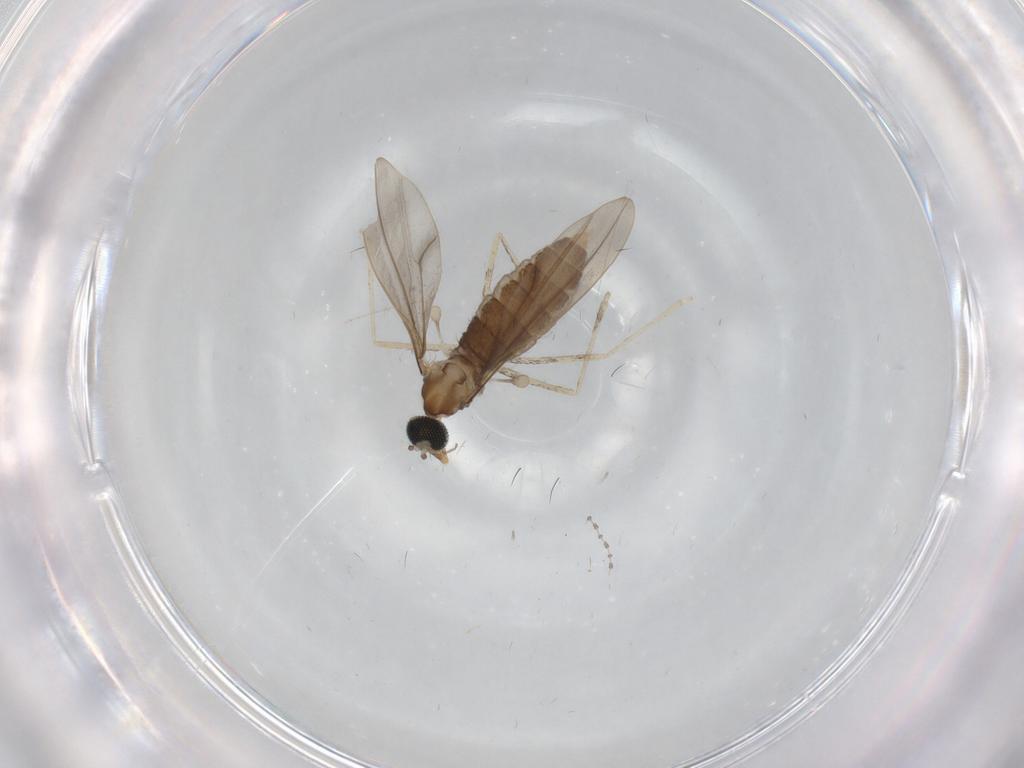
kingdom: Animalia
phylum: Arthropoda
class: Insecta
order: Diptera
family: Cecidomyiidae
